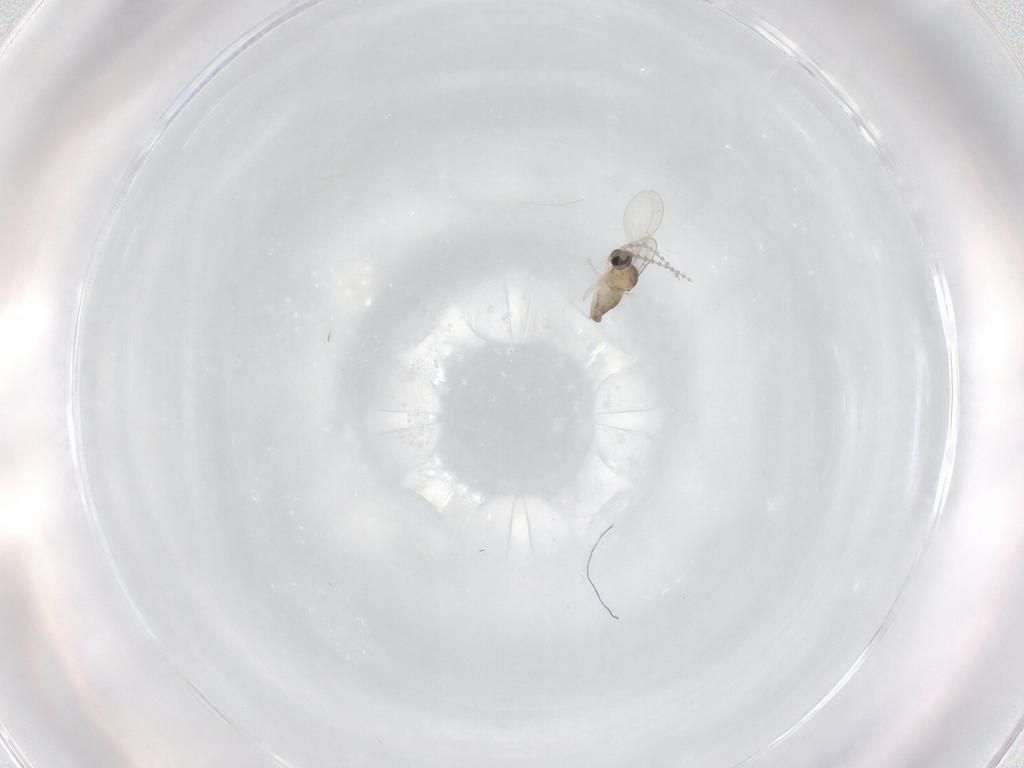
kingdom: Animalia
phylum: Arthropoda
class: Insecta
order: Diptera
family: Cecidomyiidae
